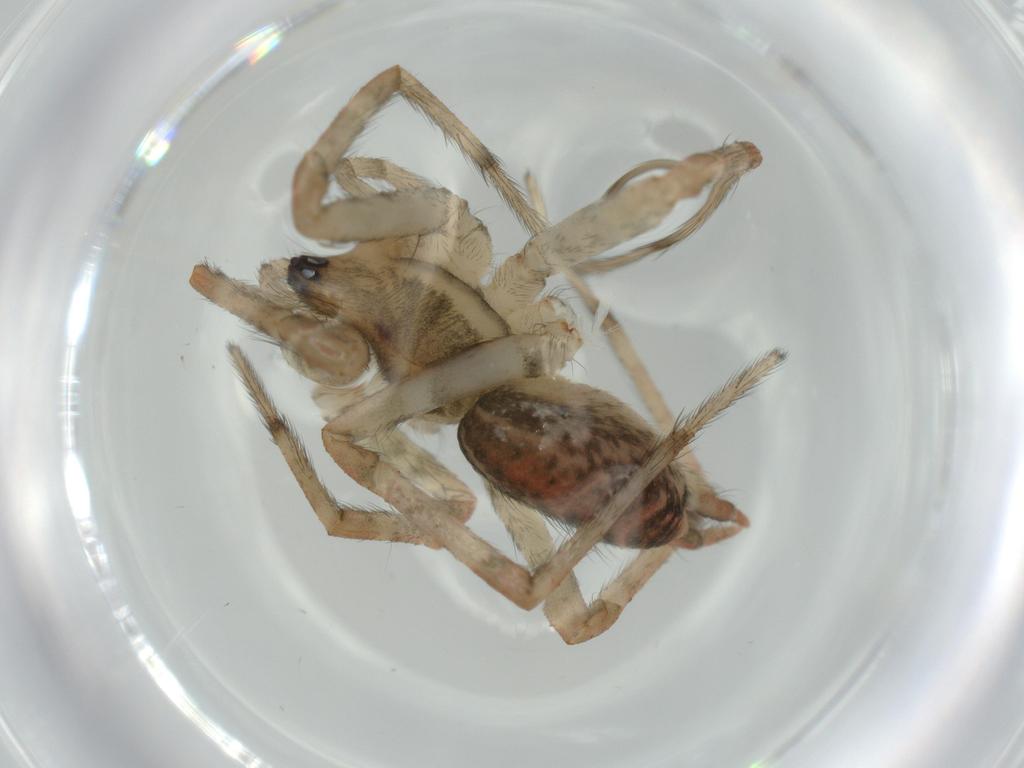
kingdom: Animalia
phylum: Arthropoda
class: Arachnida
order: Araneae
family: Agelenidae
